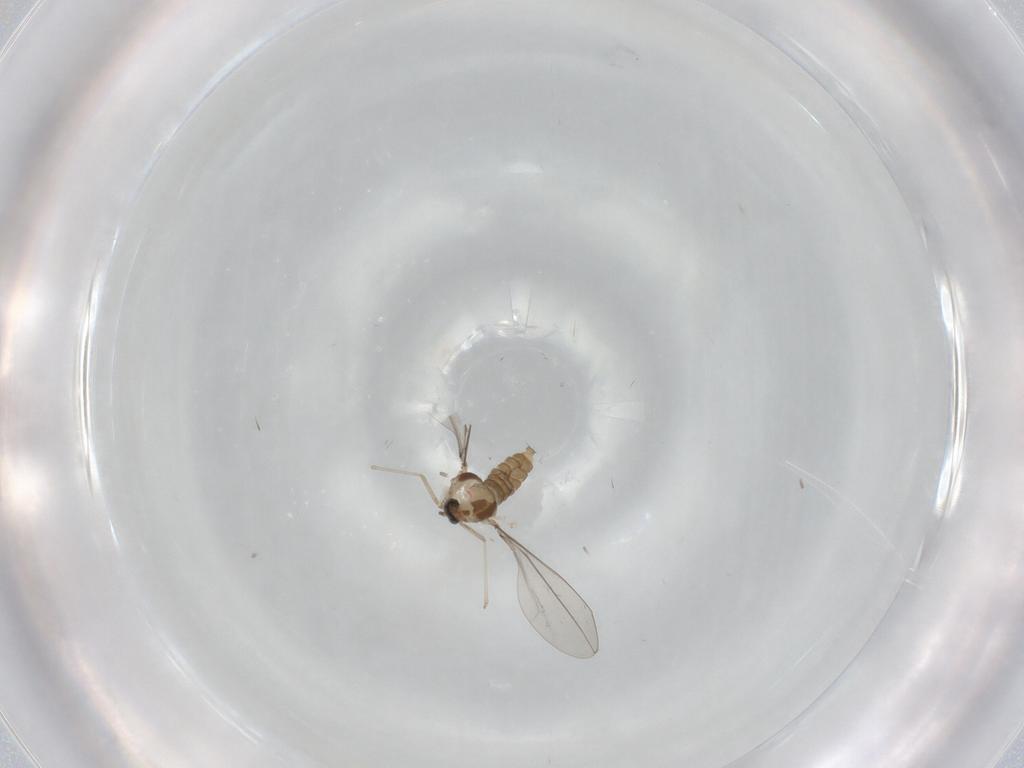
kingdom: Animalia
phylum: Arthropoda
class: Insecta
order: Diptera
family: Cecidomyiidae
